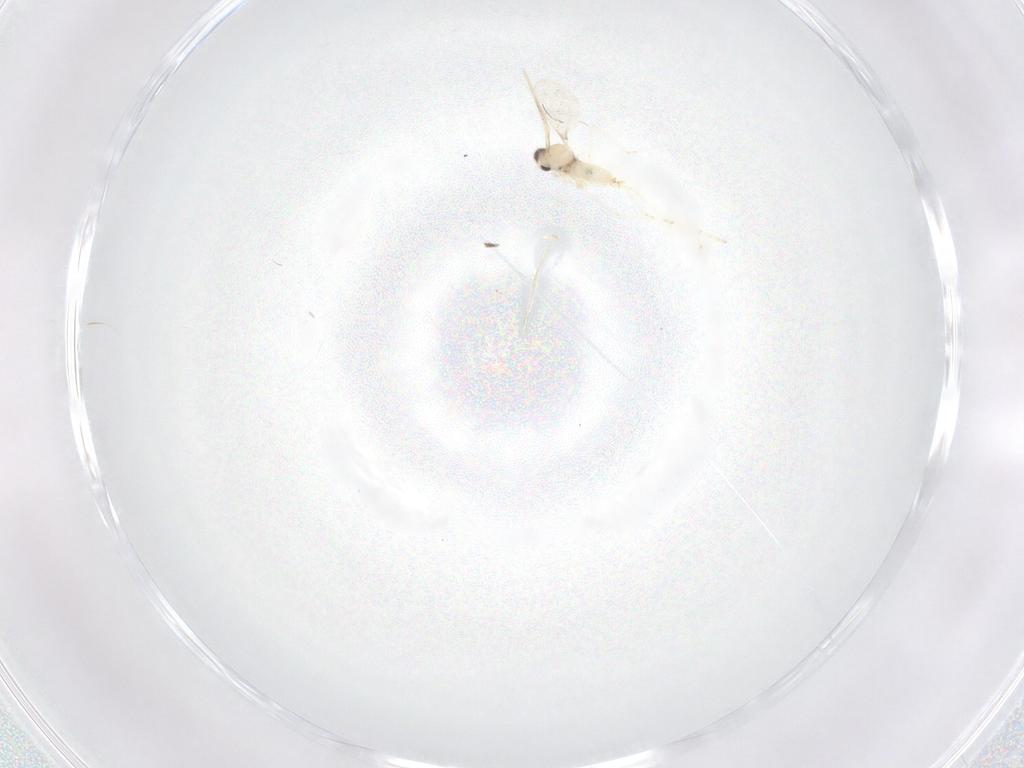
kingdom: Animalia
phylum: Arthropoda
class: Insecta
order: Diptera
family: Cecidomyiidae
